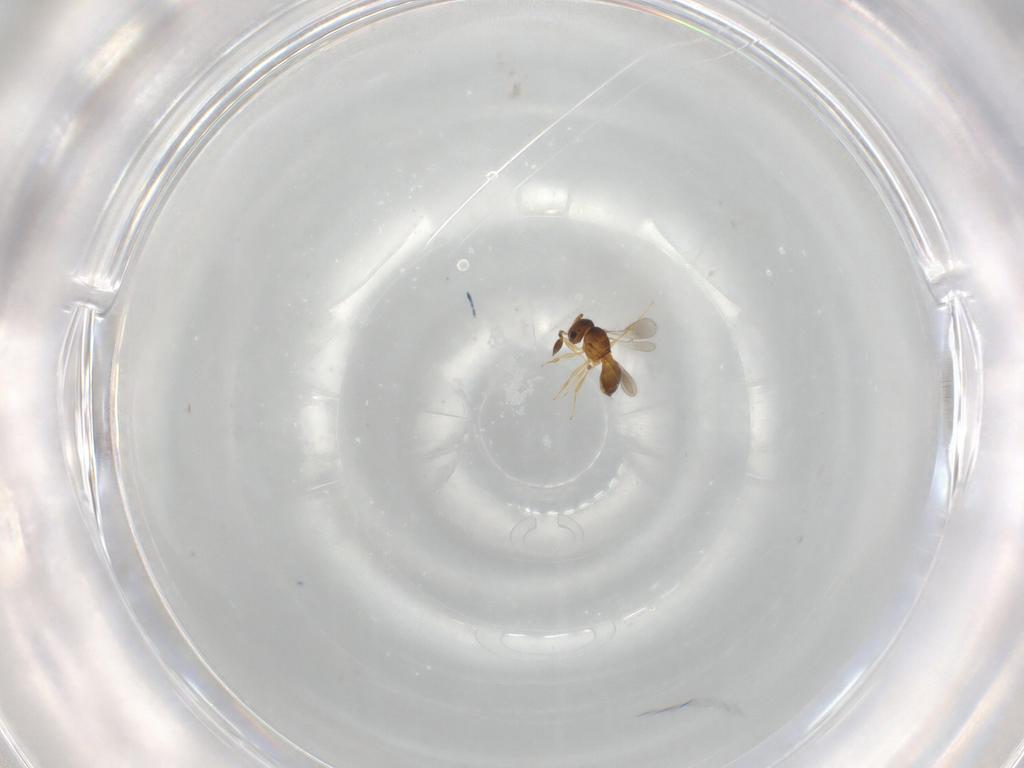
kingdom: Animalia
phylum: Arthropoda
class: Insecta
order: Hymenoptera
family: Scelionidae
